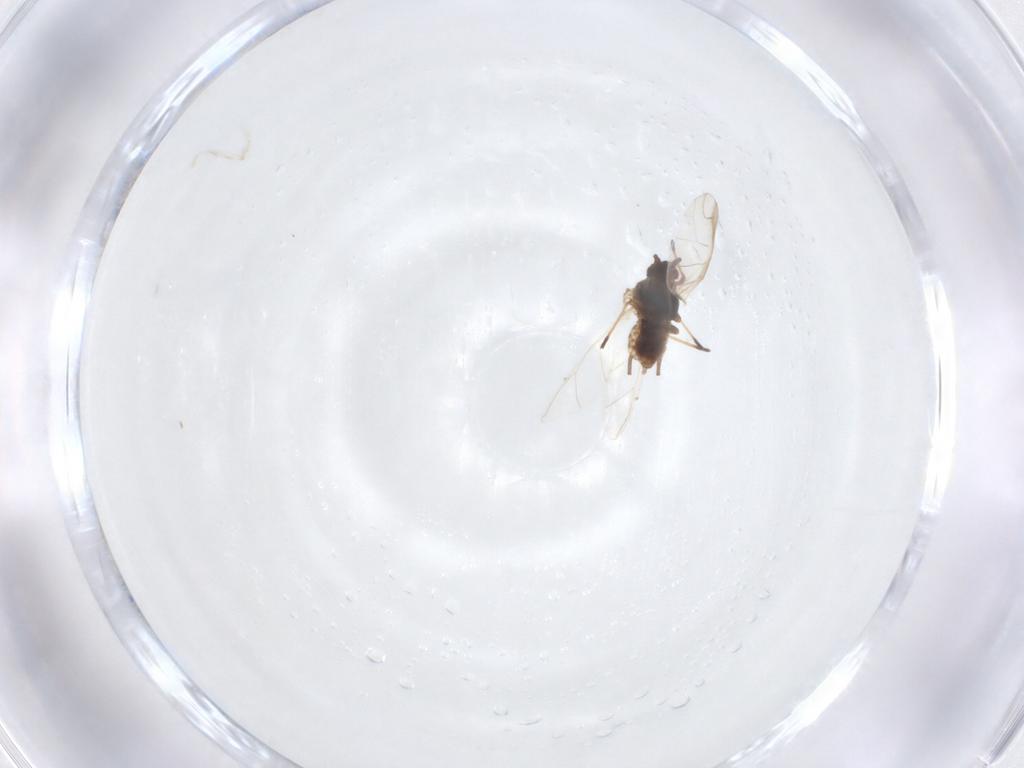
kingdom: Animalia
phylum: Arthropoda
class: Insecta
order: Hemiptera
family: Aphididae
